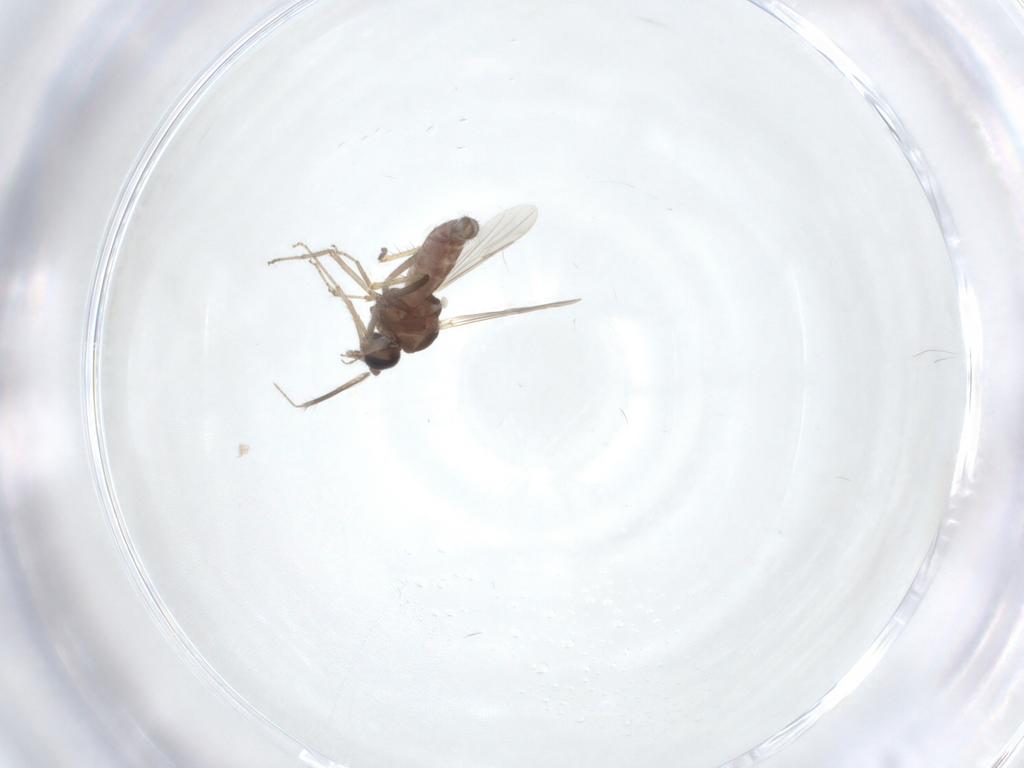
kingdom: Animalia
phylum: Arthropoda
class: Insecta
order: Diptera
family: Ceratopogonidae
